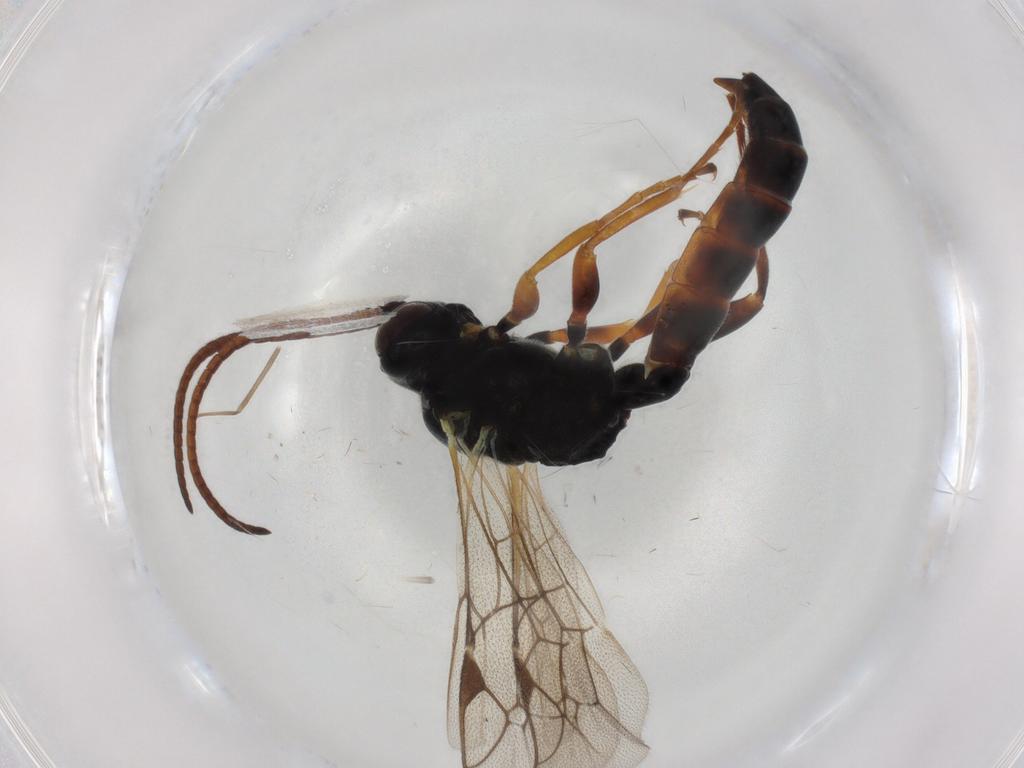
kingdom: Animalia
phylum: Arthropoda
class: Insecta
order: Hymenoptera
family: Ichneumonidae
